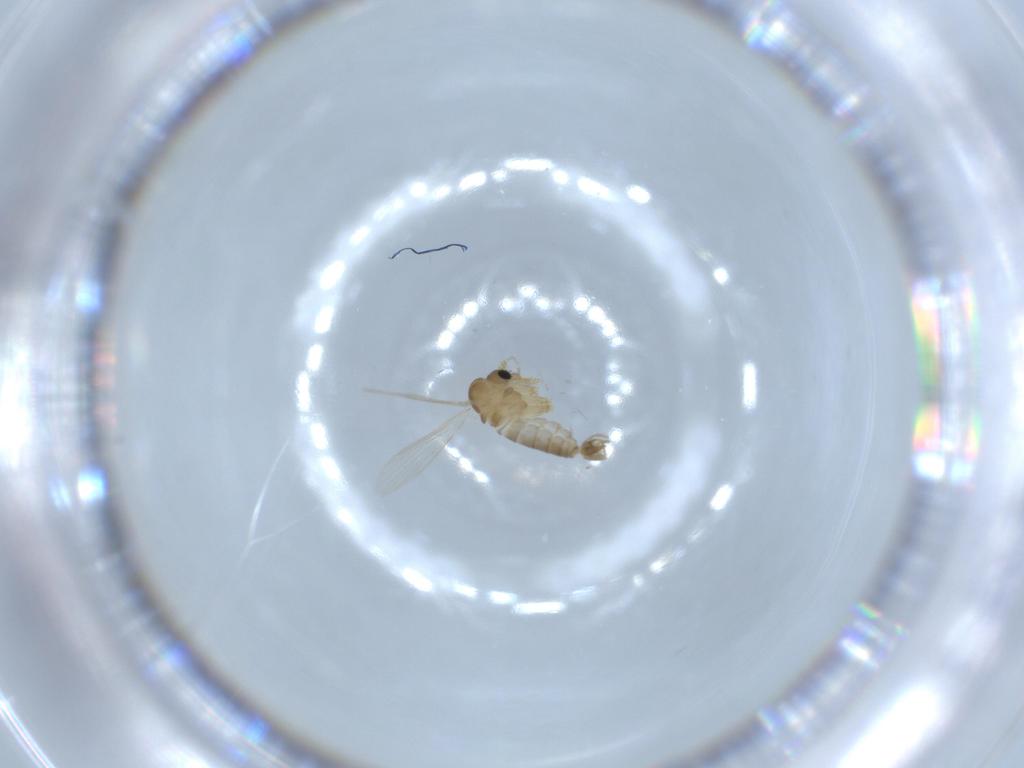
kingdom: Animalia
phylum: Arthropoda
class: Insecta
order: Diptera
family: Psychodidae
